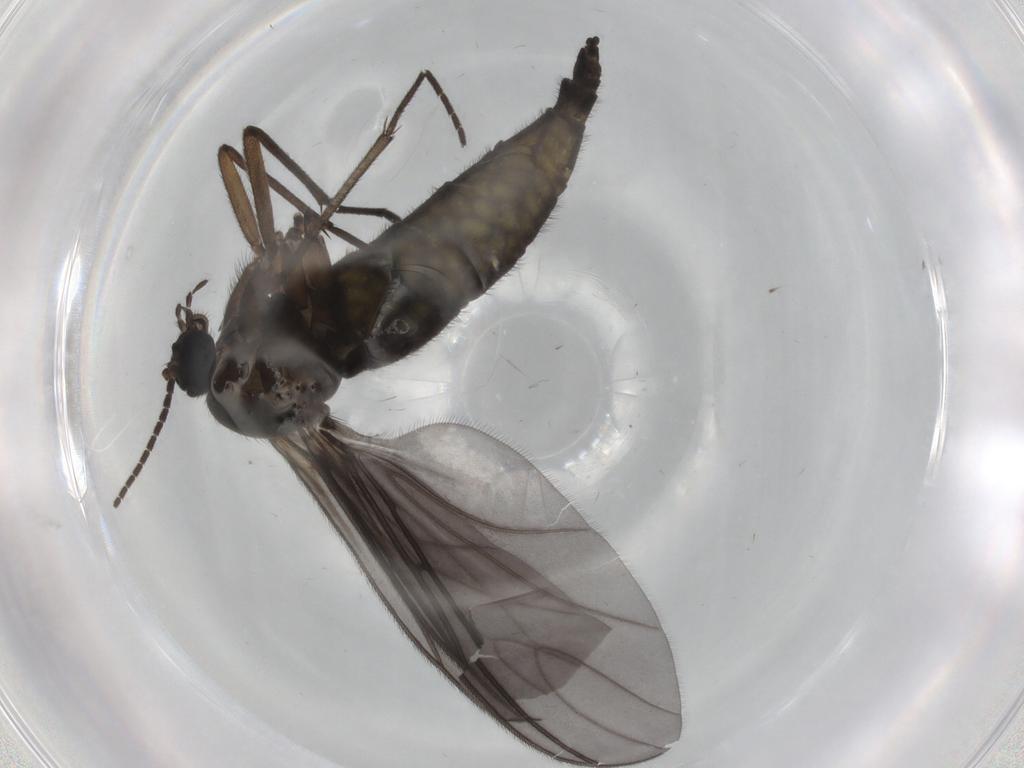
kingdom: Animalia
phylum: Arthropoda
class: Insecta
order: Diptera
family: Sciaridae
